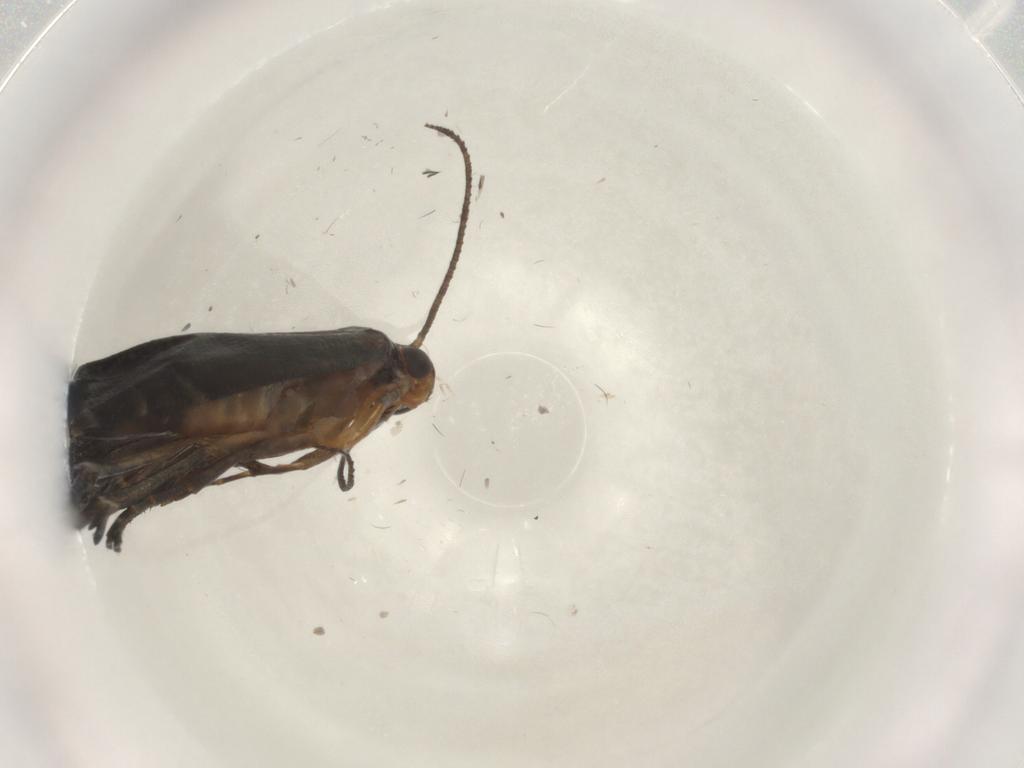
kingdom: Animalia
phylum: Arthropoda
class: Insecta
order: Lepidoptera
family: Glyphipterigidae
